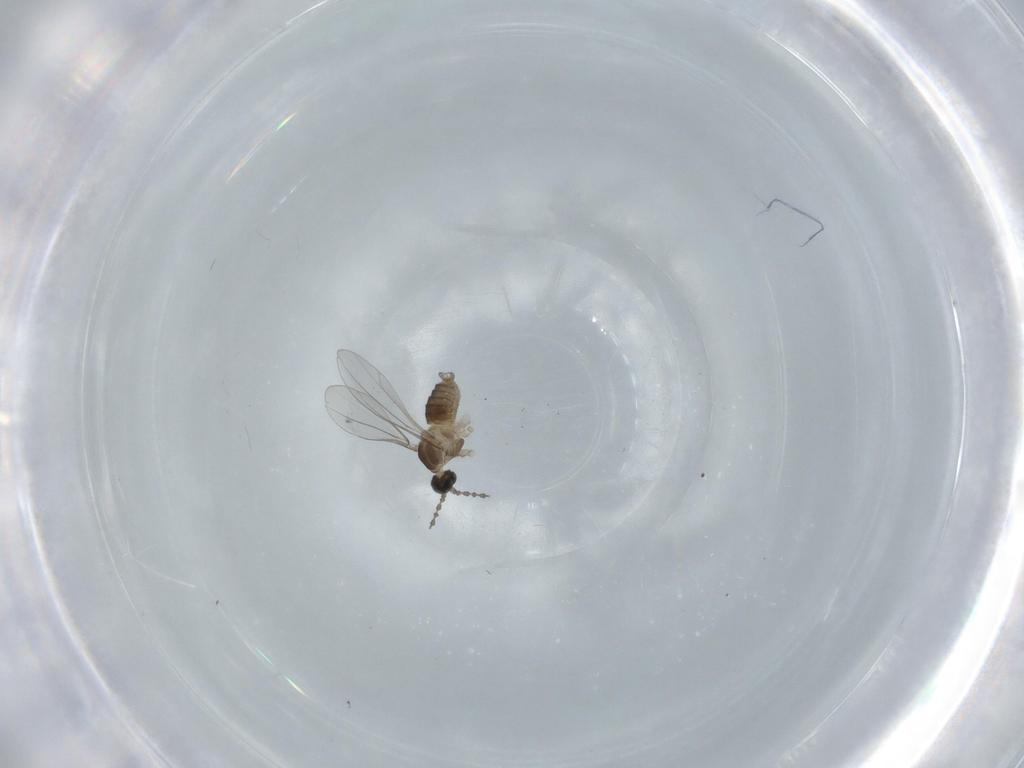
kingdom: Animalia
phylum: Arthropoda
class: Insecta
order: Diptera
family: Cecidomyiidae
